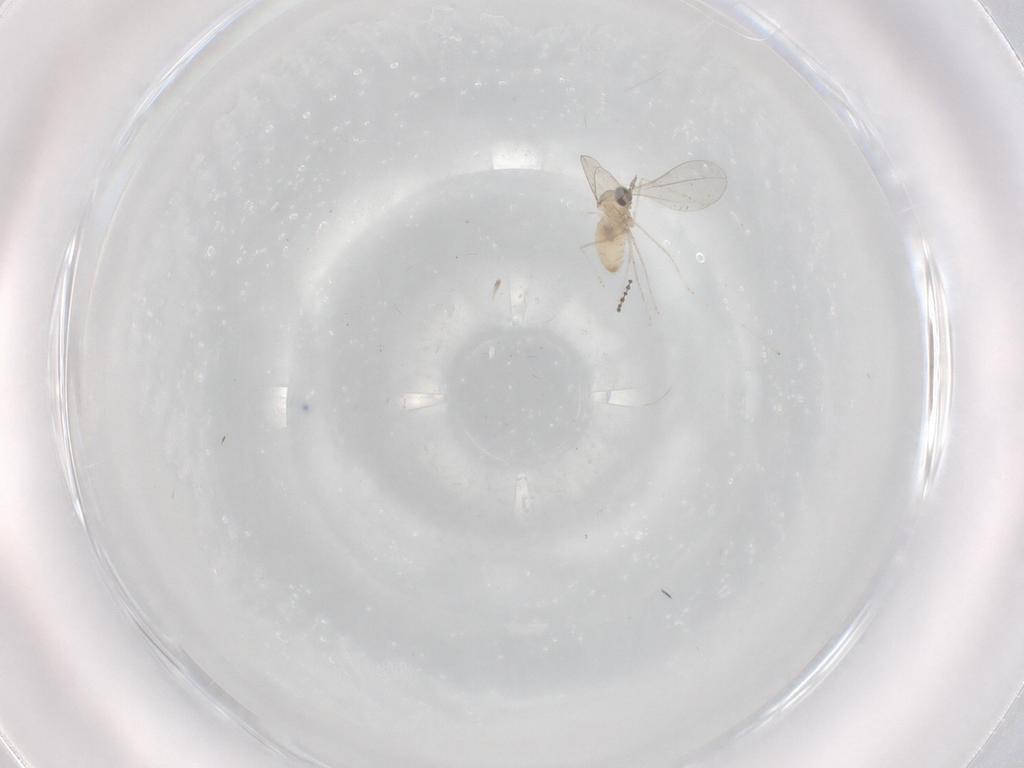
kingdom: Animalia
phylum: Arthropoda
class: Insecta
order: Diptera
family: Cecidomyiidae
